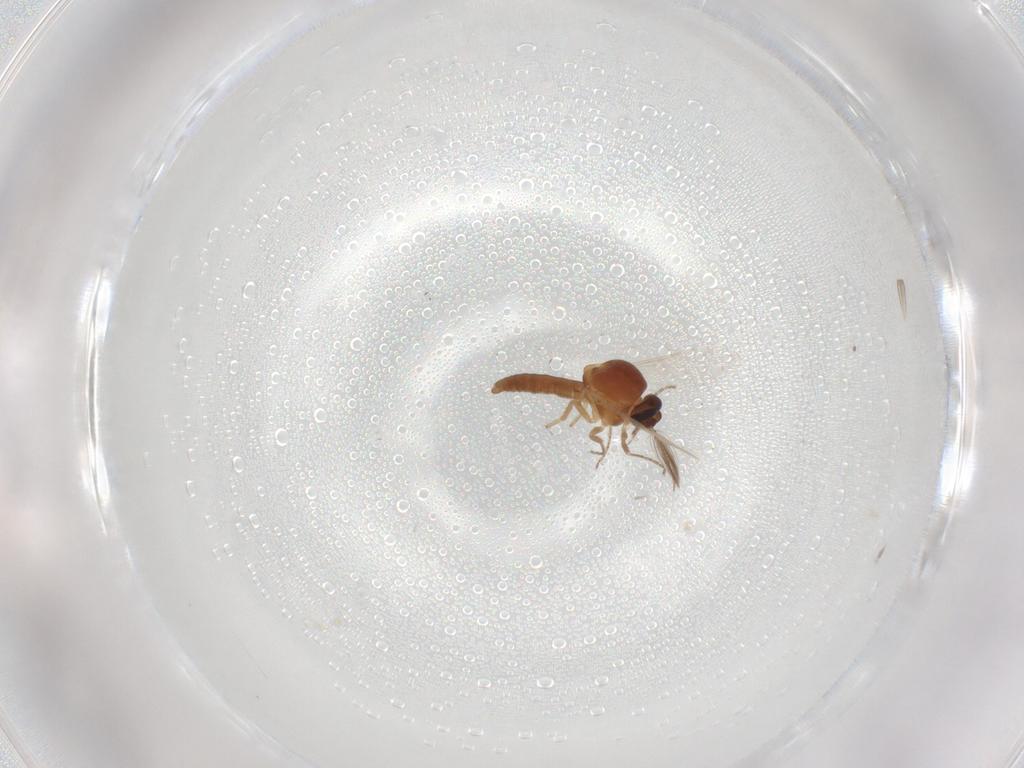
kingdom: Animalia
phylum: Arthropoda
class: Insecta
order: Diptera
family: Ceratopogonidae
